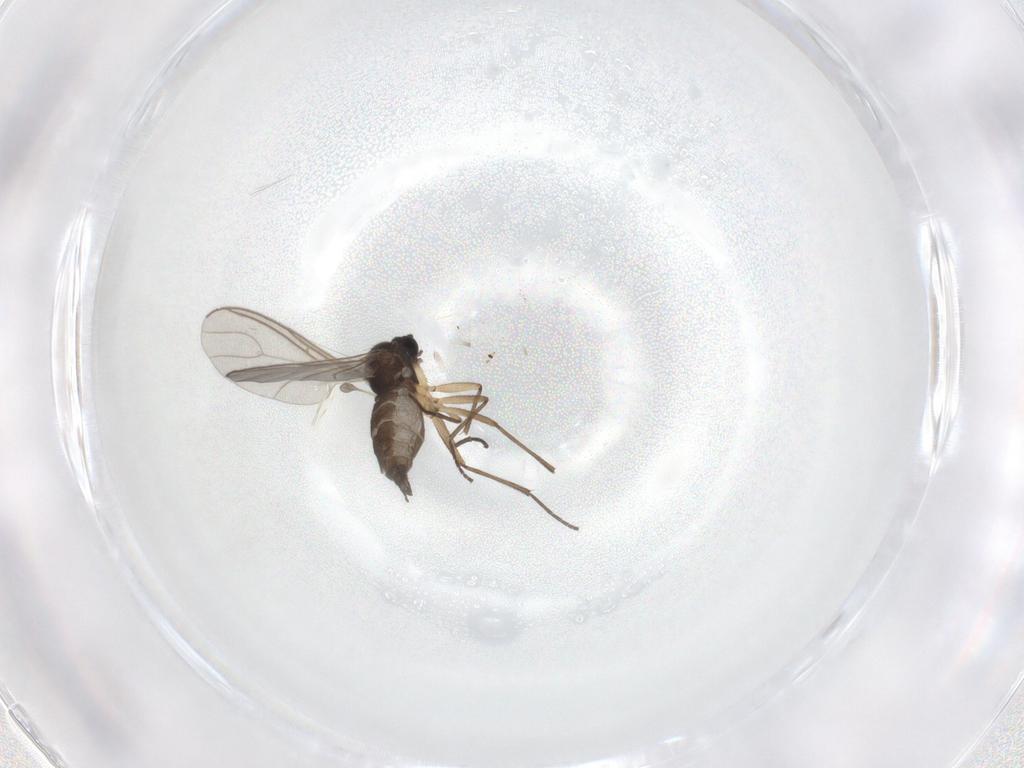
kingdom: Animalia
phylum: Arthropoda
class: Insecta
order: Diptera
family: Sciaridae
